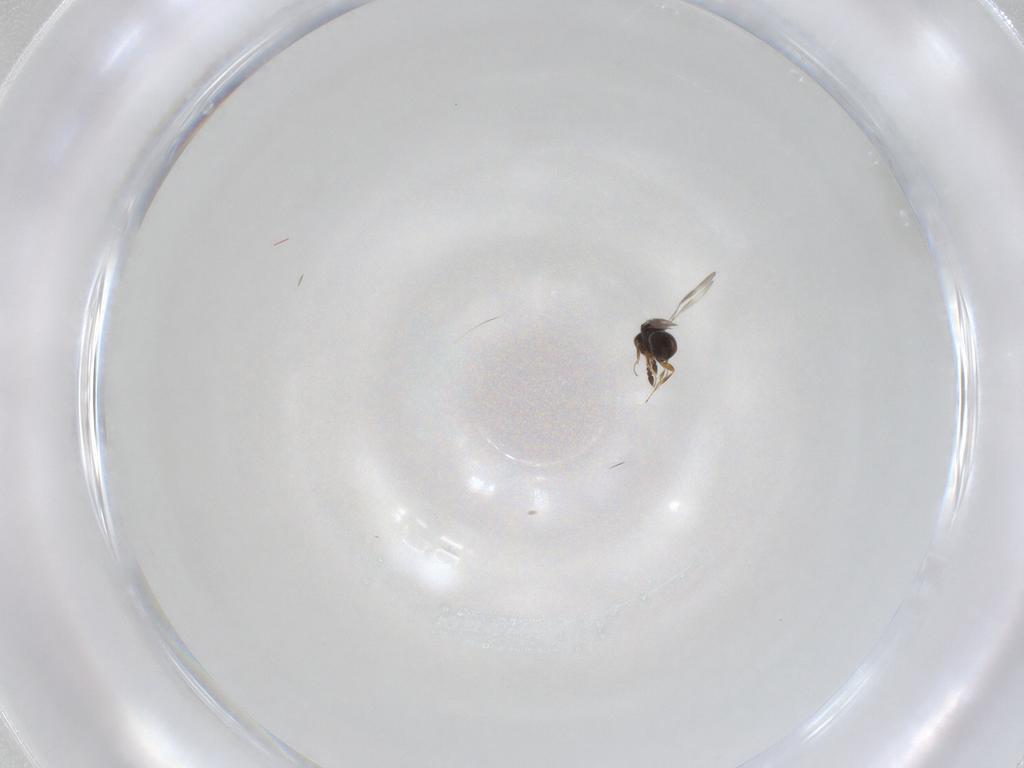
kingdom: Animalia
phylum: Arthropoda
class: Insecta
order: Hymenoptera
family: Ceraphronidae
